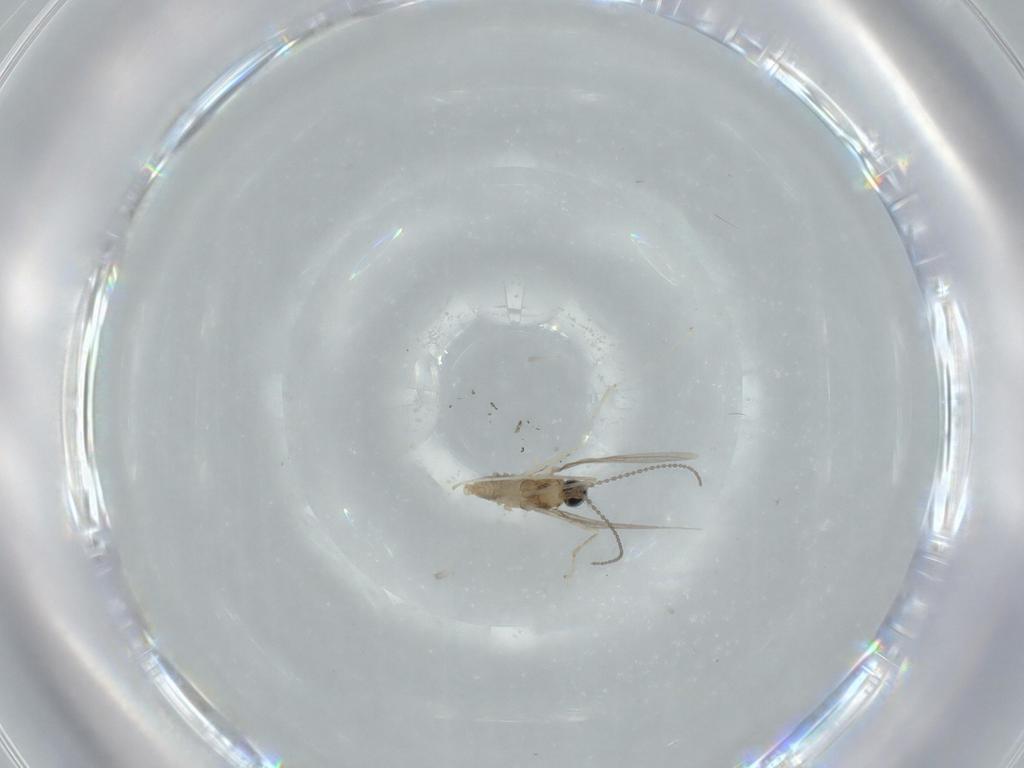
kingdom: Animalia
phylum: Arthropoda
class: Insecta
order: Diptera
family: Cecidomyiidae
